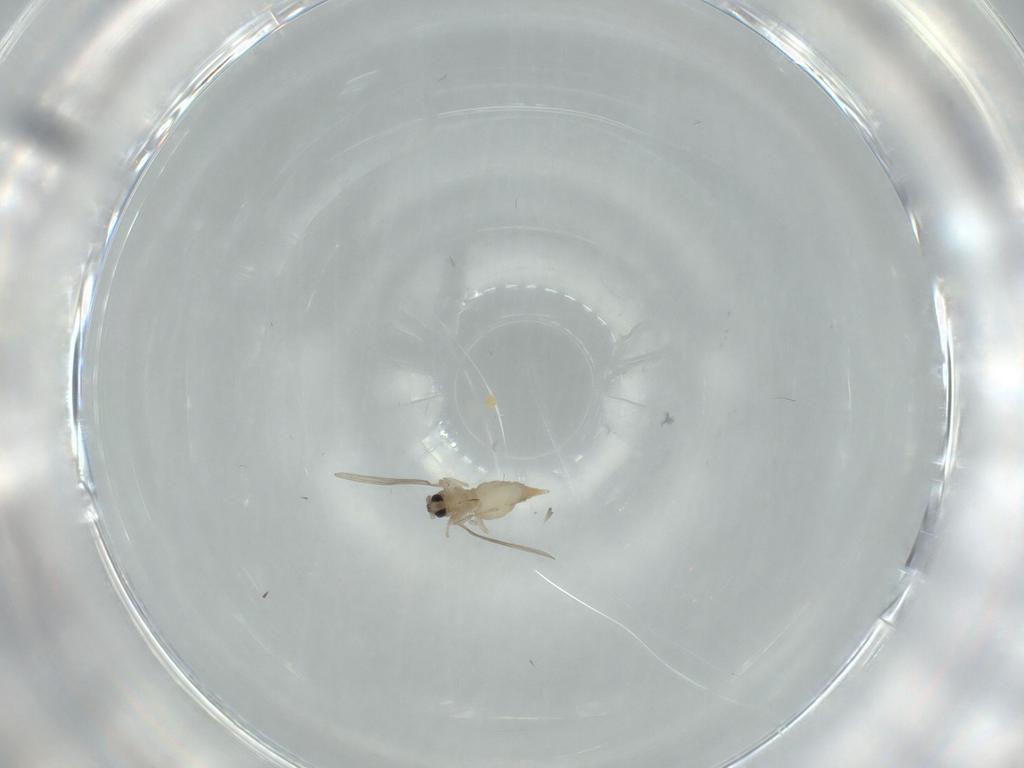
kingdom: Animalia
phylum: Arthropoda
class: Insecta
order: Diptera
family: Cecidomyiidae
